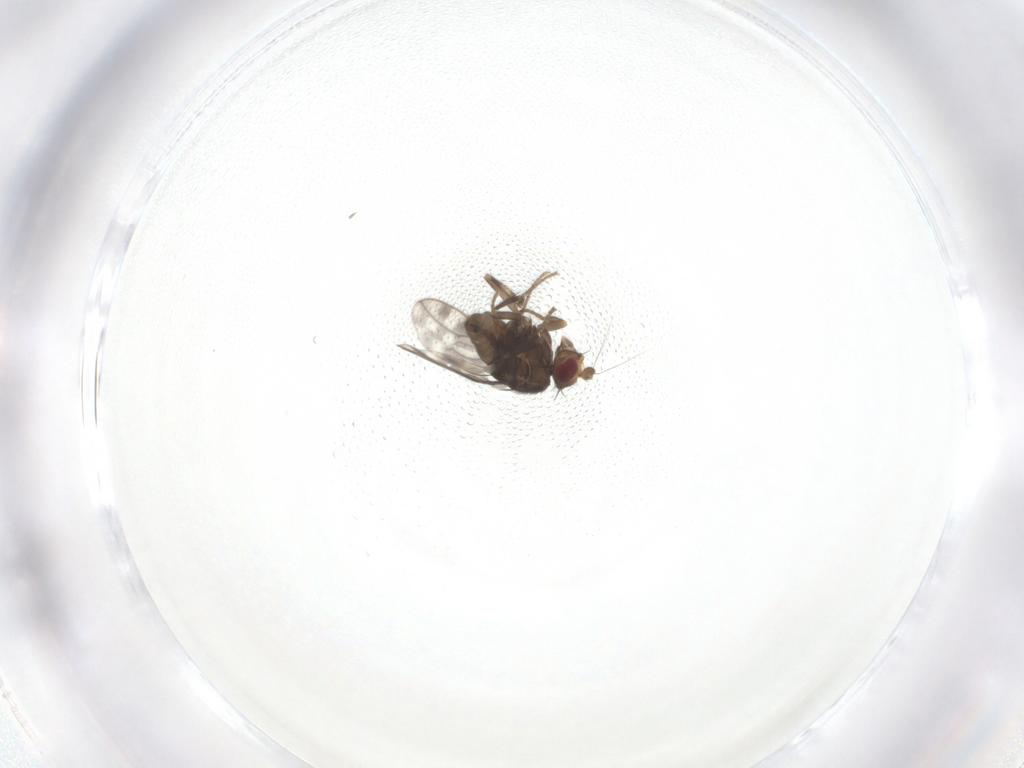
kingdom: Animalia
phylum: Arthropoda
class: Insecta
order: Diptera
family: Sphaeroceridae
